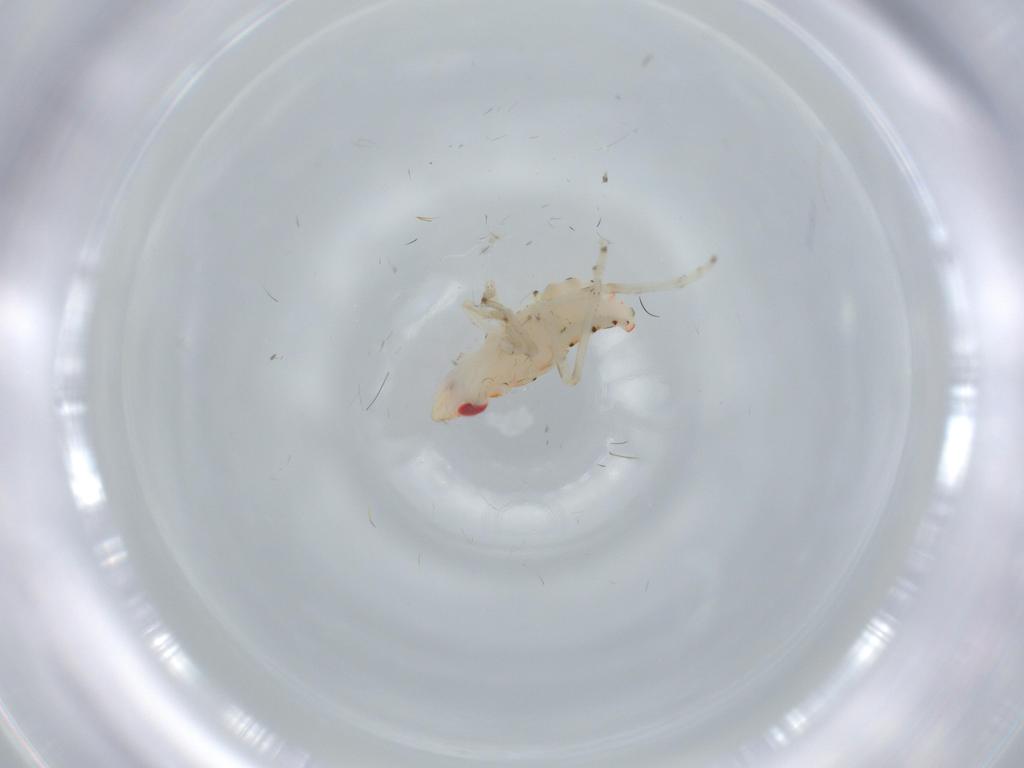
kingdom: Animalia
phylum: Arthropoda
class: Insecta
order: Hemiptera
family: Tropiduchidae
